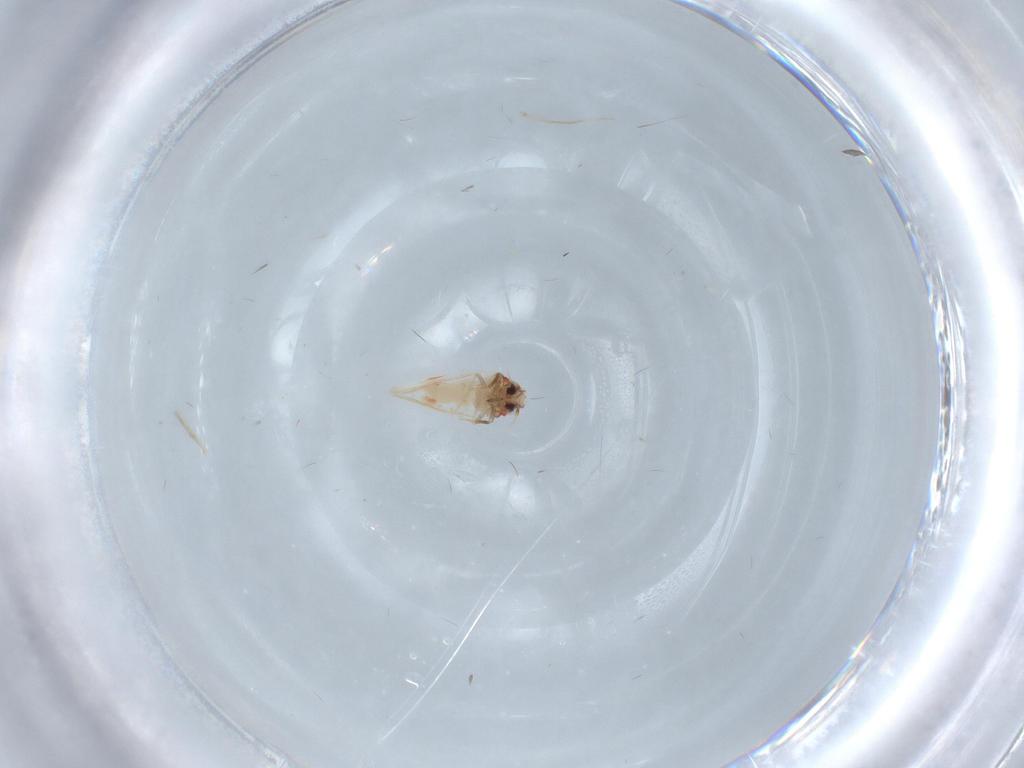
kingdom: Animalia
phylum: Arthropoda
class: Insecta
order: Hemiptera
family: Aleyrodidae
